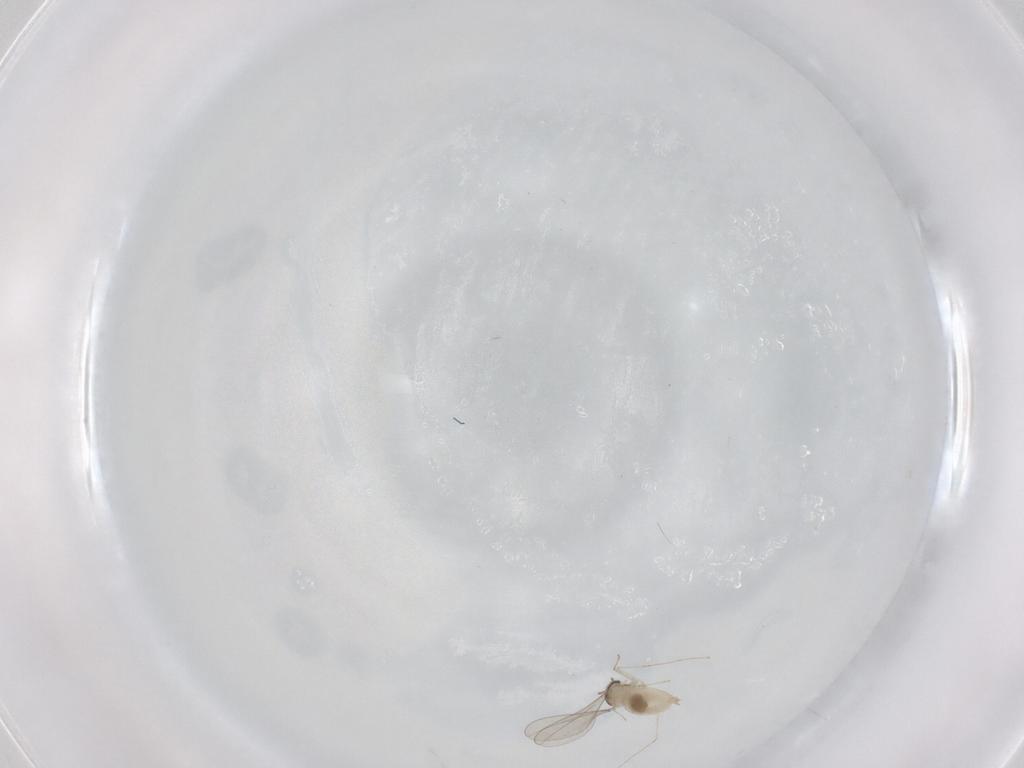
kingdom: Animalia
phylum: Arthropoda
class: Insecta
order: Diptera
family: Cecidomyiidae
